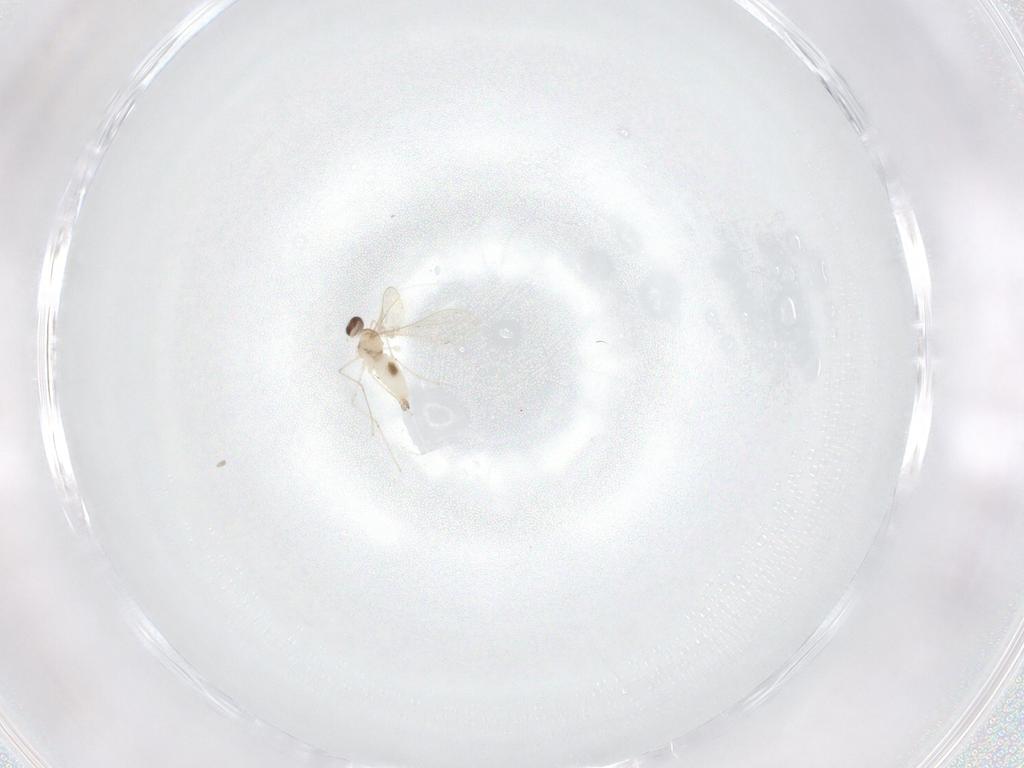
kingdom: Animalia
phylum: Arthropoda
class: Insecta
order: Diptera
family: Cecidomyiidae
